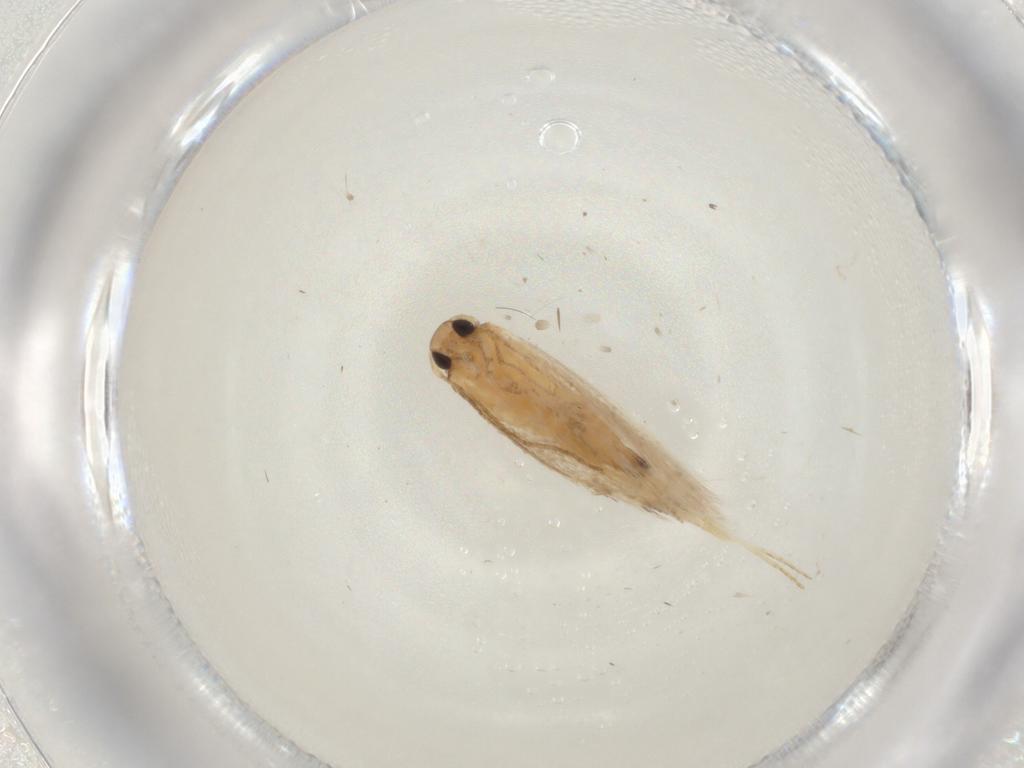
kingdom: Animalia
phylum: Arthropoda
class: Insecta
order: Lepidoptera
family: Gelechiidae
